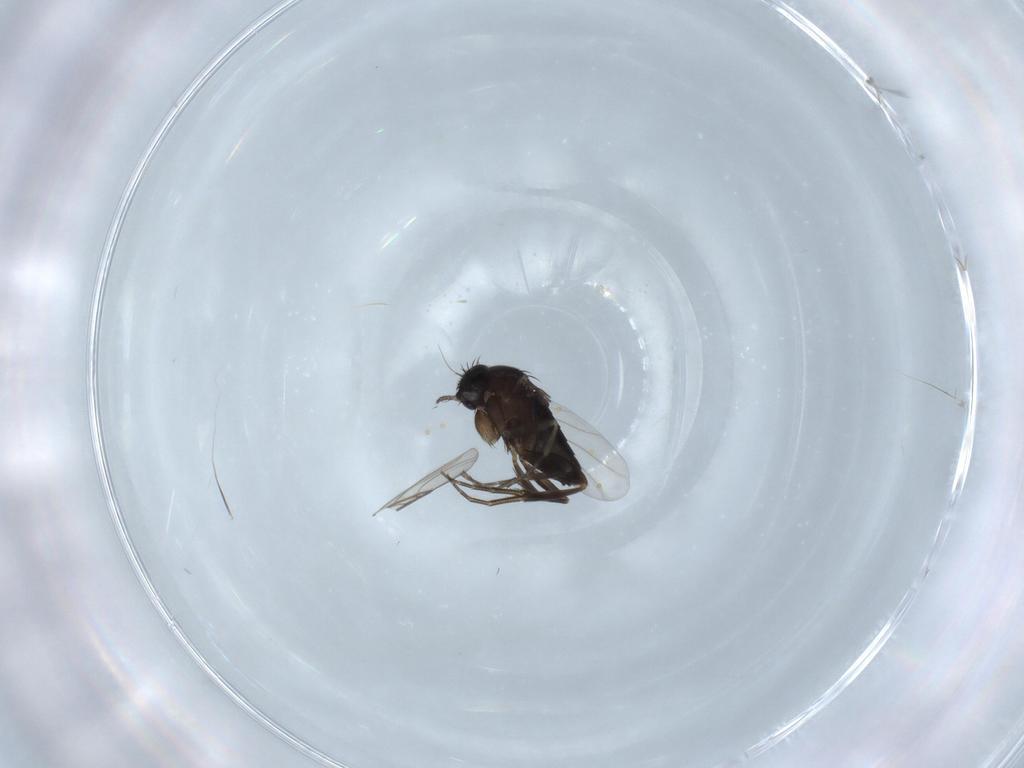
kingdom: Animalia
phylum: Arthropoda
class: Insecta
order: Diptera
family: Phoridae
